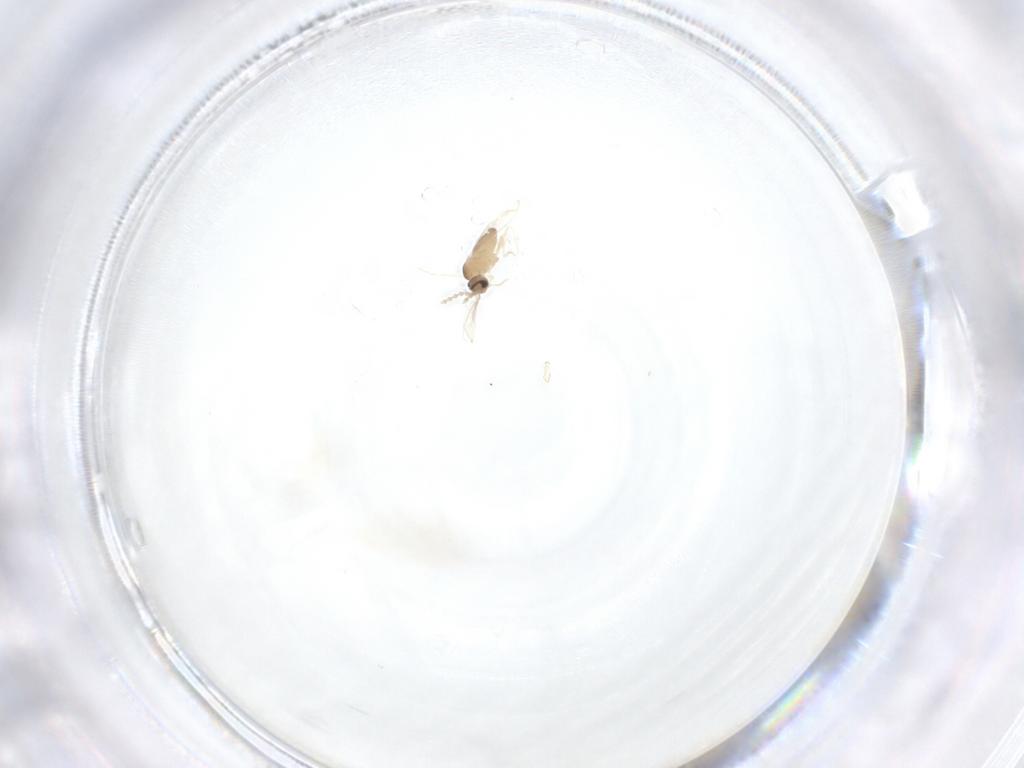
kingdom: Animalia
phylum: Arthropoda
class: Insecta
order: Diptera
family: Cecidomyiidae
